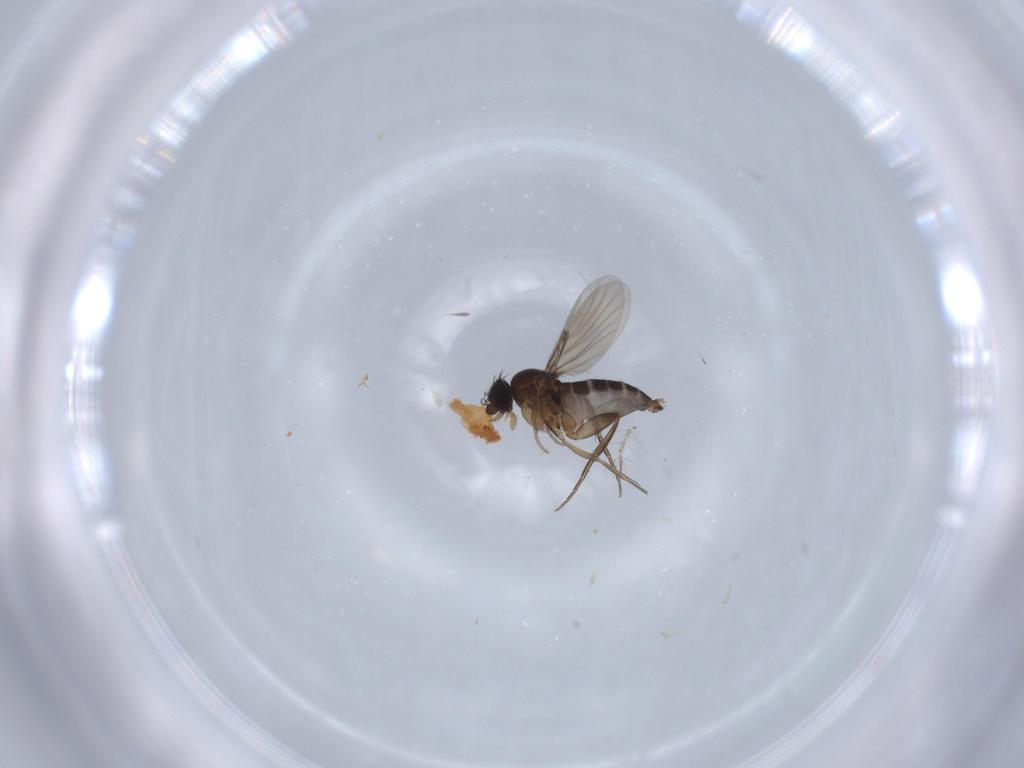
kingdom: Animalia
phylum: Arthropoda
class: Insecta
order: Diptera
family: Phoridae
